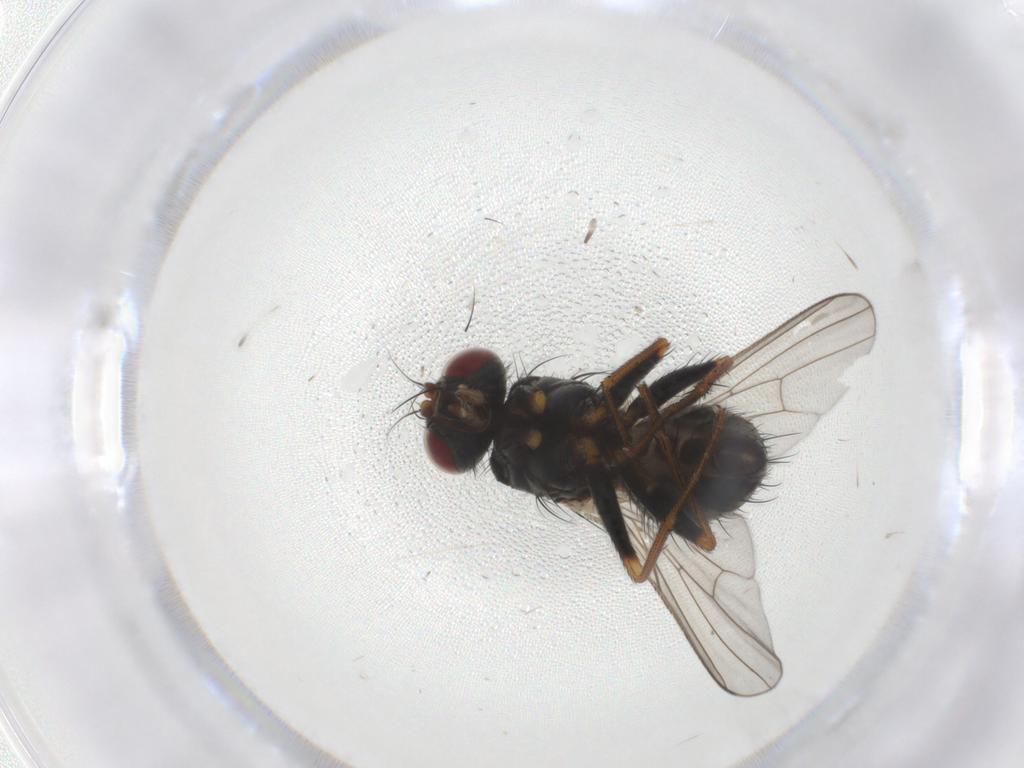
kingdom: Animalia
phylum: Arthropoda
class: Insecta
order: Diptera
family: Muscidae
